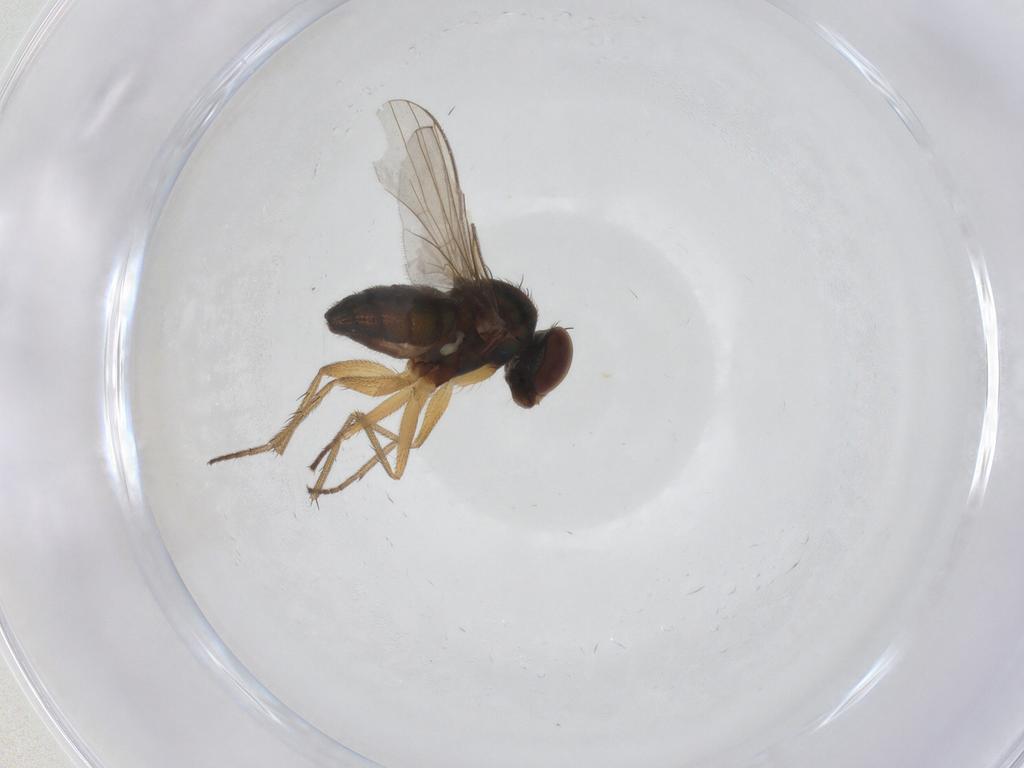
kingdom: Animalia
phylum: Arthropoda
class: Insecta
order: Diptera
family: Dolichopodidae
